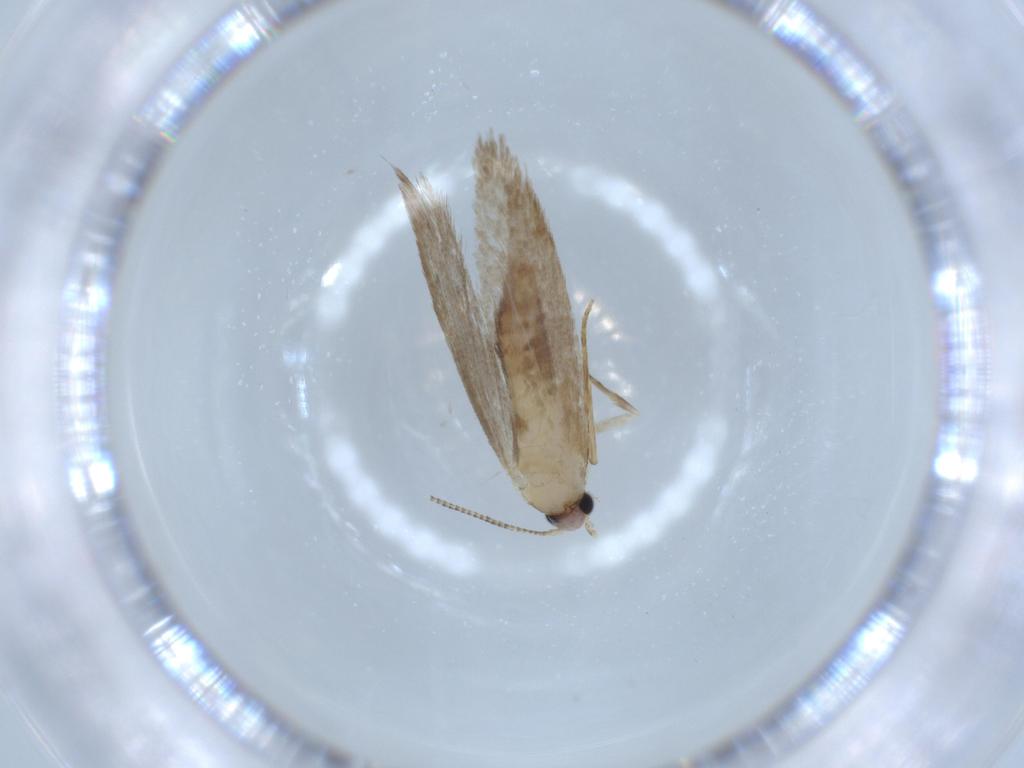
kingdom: Animalia
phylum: Arthropoda
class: Insecta
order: Lepidoptera
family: Tineidae
